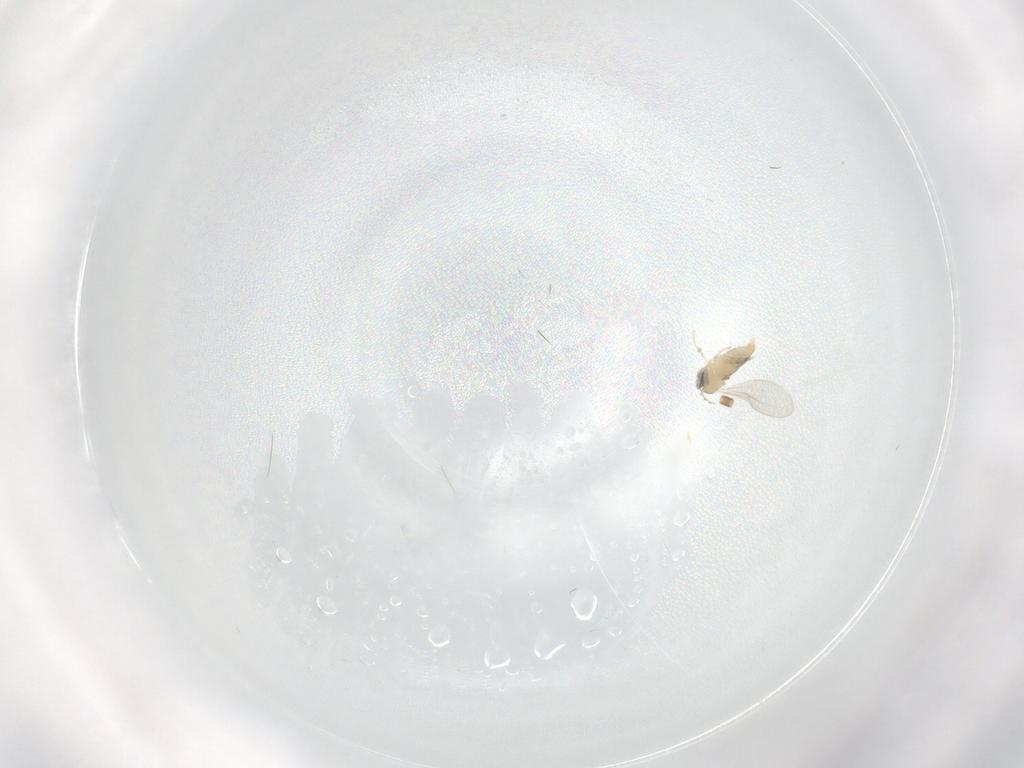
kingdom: Animalia
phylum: Arthropoda
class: Insecta
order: Diptera
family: Cecidomyiidae
